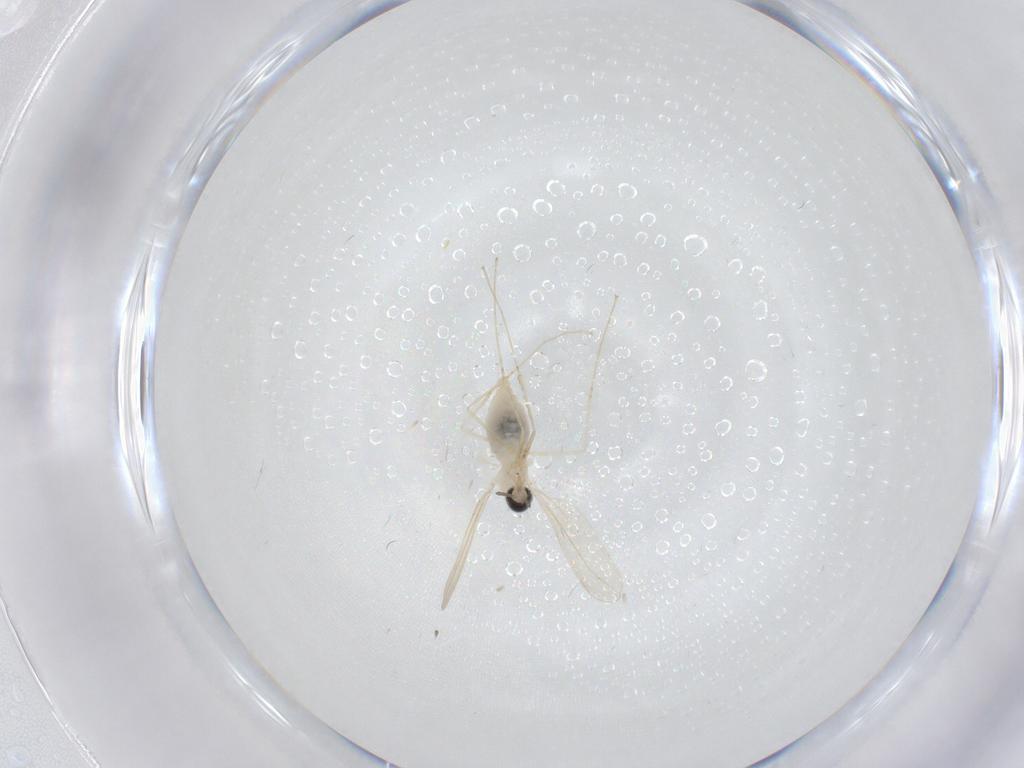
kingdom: Animalia
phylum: Arthropoda
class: Insecta
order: Diptera
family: Cecidomyiidae
